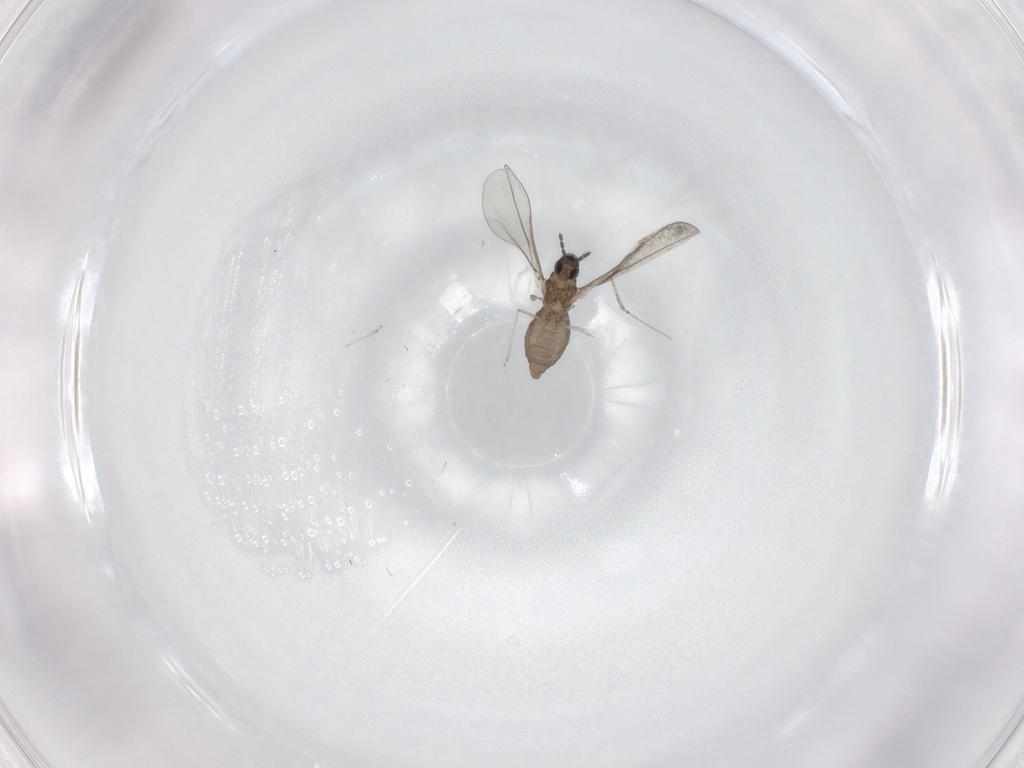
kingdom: Animalia
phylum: Arthropoda
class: Insecta
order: Diptera
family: Cecidomyiidae
